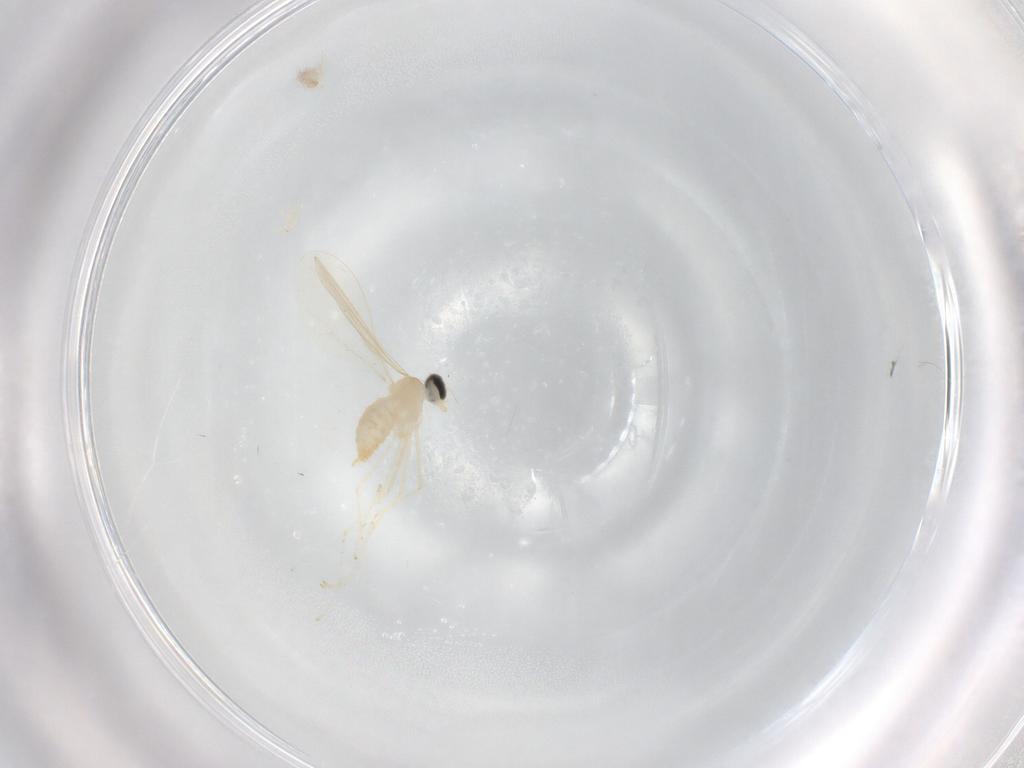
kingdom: Animalia
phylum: Arthropoda
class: Insecta
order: Diptera
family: Cecidomyiidae
